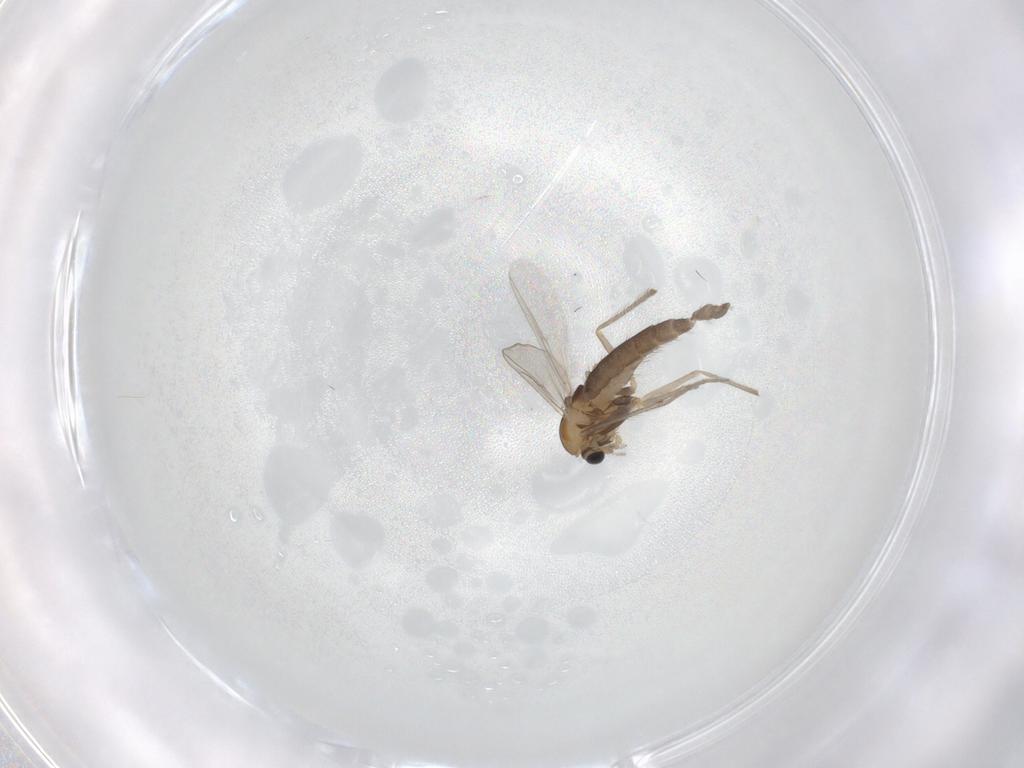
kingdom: Animalia
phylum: Arthropoda
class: Insecta
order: Diptera
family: Chironomidae
